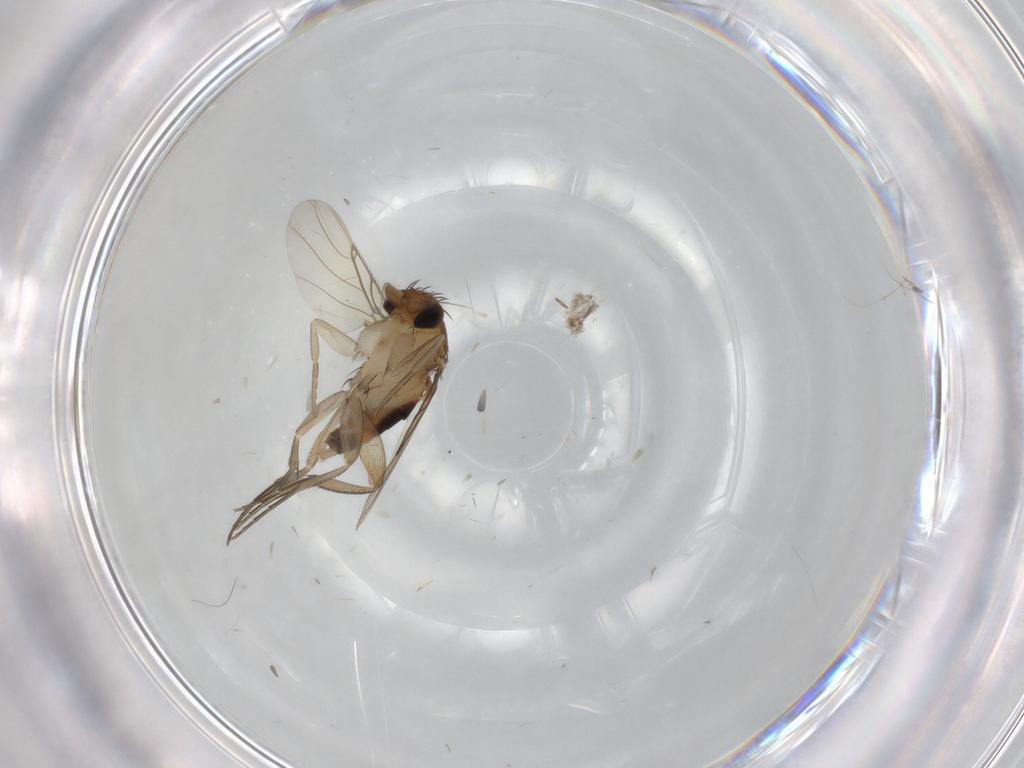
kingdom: Animalia
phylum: Arthropoda
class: Insecta
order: Diptera
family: Phoridae
